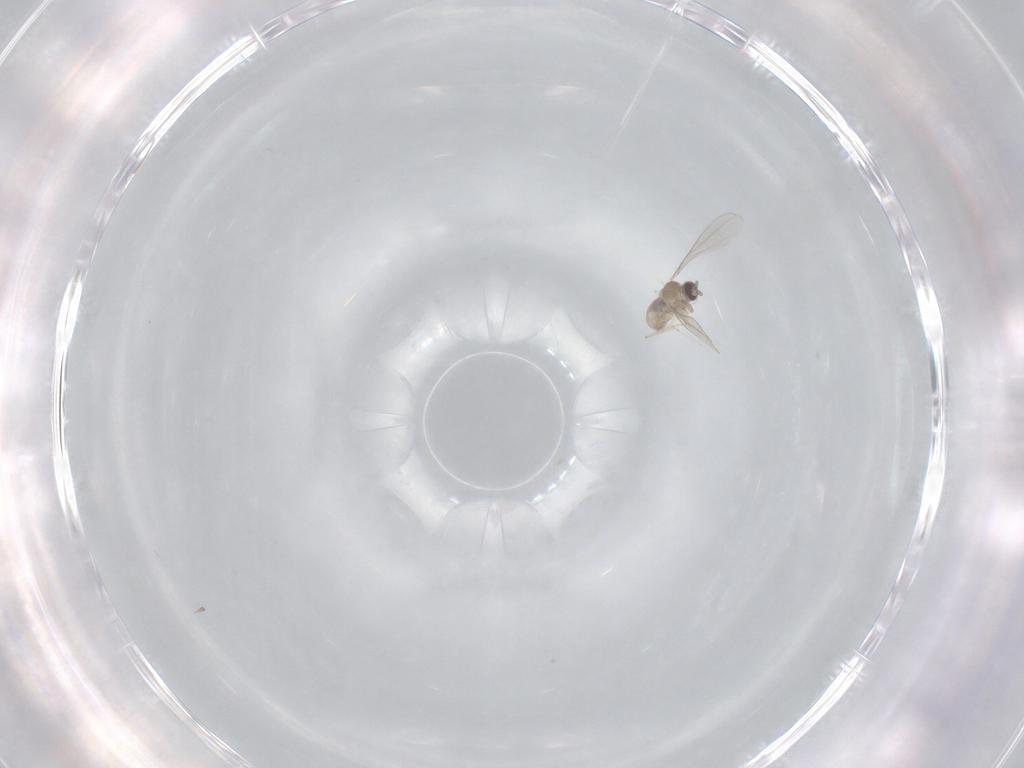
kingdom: Animalia
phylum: Arthropoda
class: Insecta
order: Diptera
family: Cecidomyiidae
